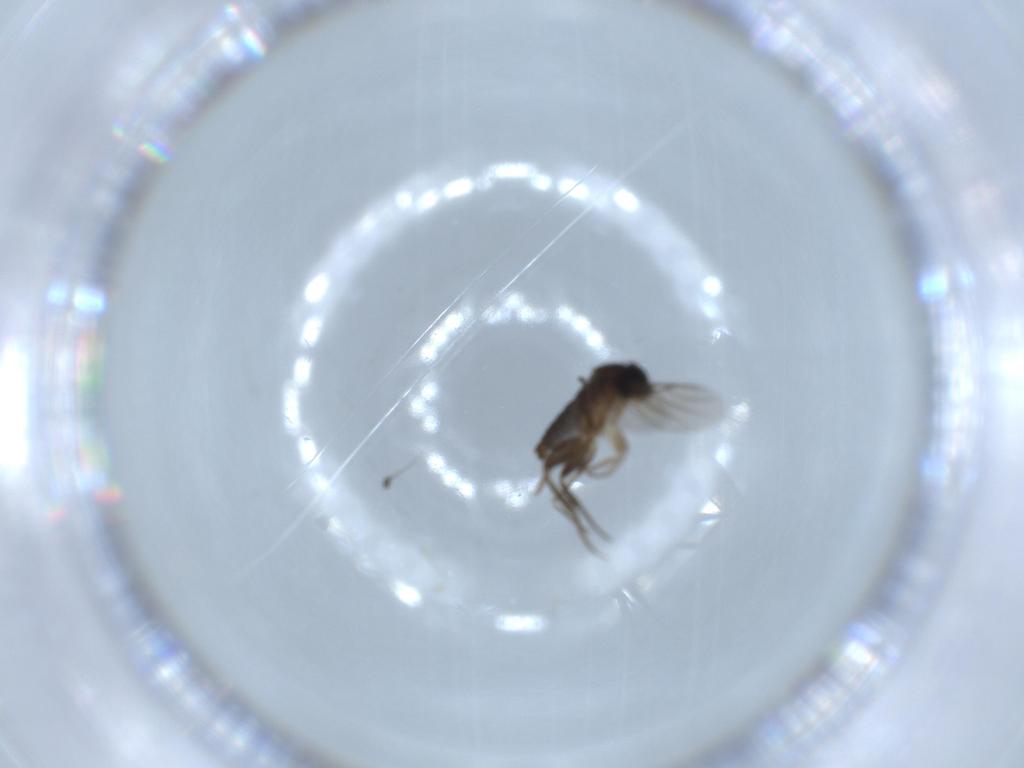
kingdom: Animalia
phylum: Arthropoda
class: Insecta
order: Diptera
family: Phoridae
